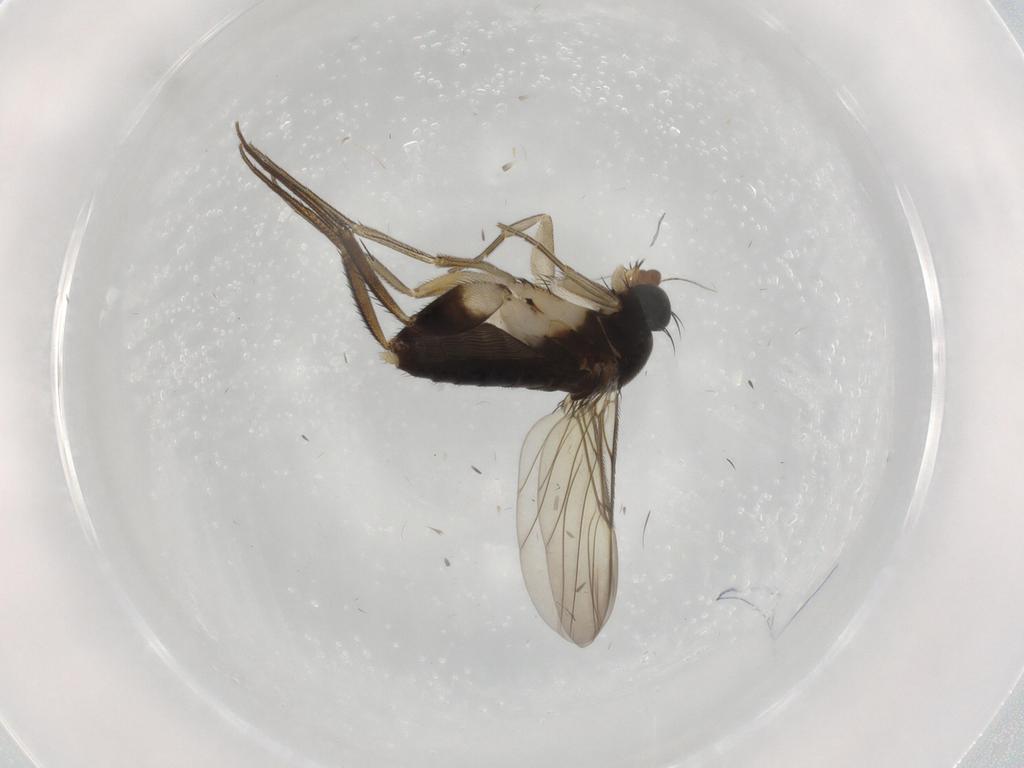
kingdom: Animalia
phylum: Arthropoda
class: Insecta
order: Diptera
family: Phoridae
